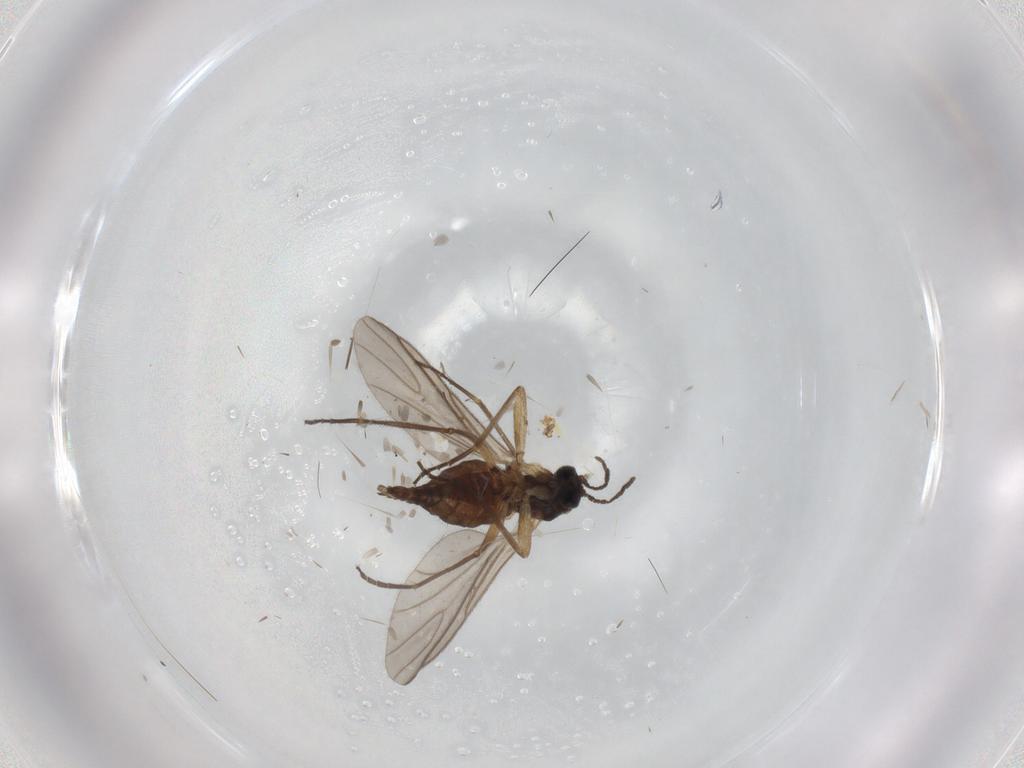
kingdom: Animalia
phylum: Arthropoda
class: Insecta
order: Diptera
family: Sciaridae
